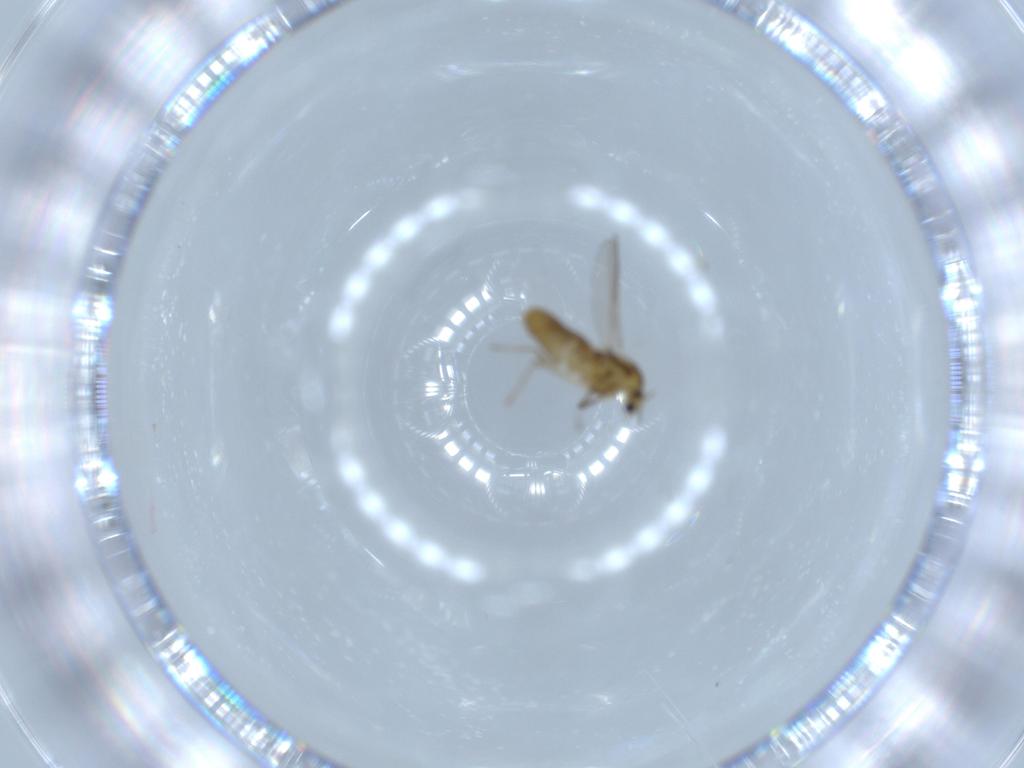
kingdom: Animalia
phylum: Arthropoda
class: Insecta
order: Diptera
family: Chironomidae
